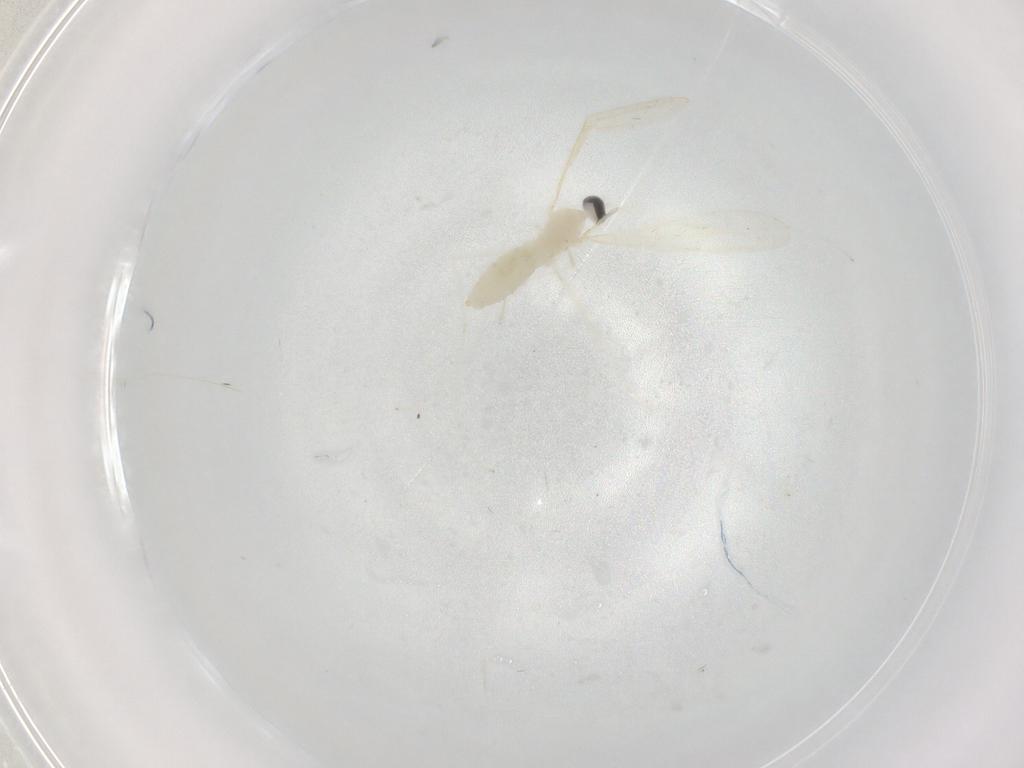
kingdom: Animalia
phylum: Arthropoda
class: Insecta
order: Diptera
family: Cecidomyiidae
